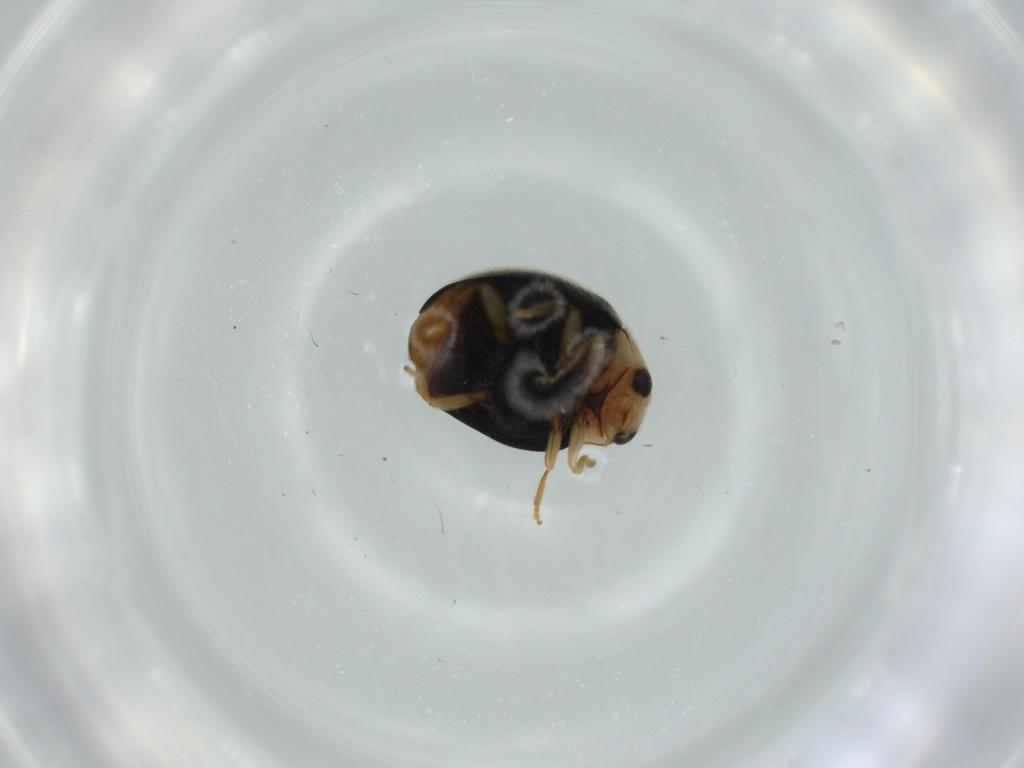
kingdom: Animalia
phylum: Arthropoda
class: Insecta
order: Coleoptera
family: Coccinellidae
